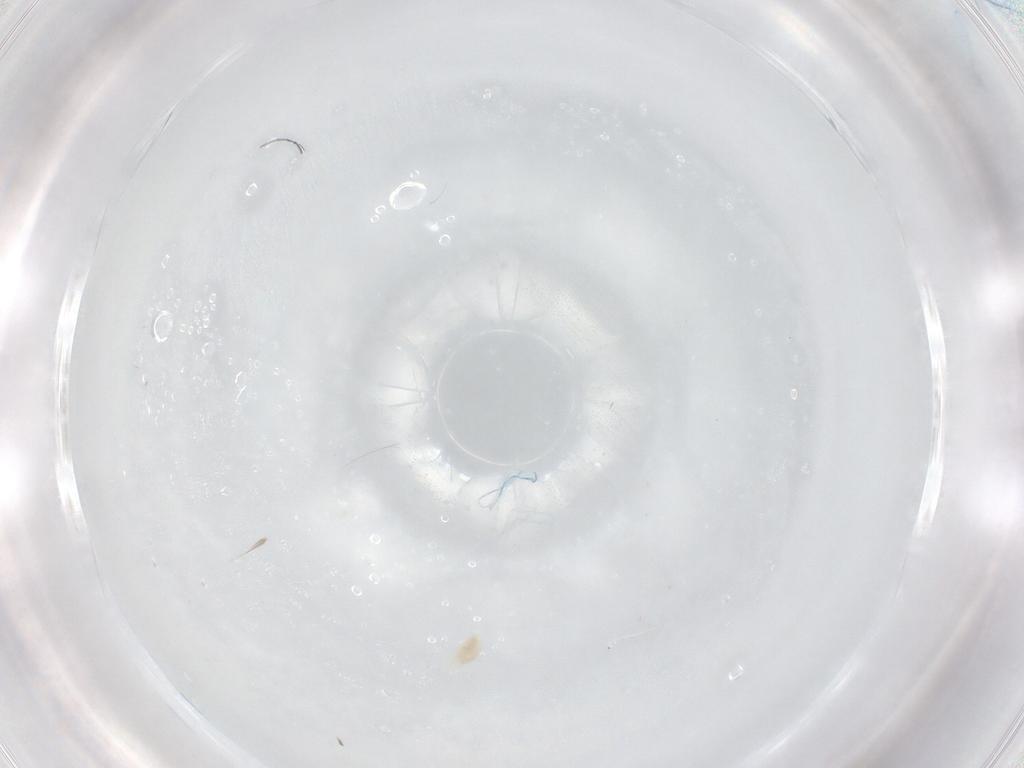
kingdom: Animalia
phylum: Arthropoda
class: Arachnida
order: Trombidiformes
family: Eupodidae
